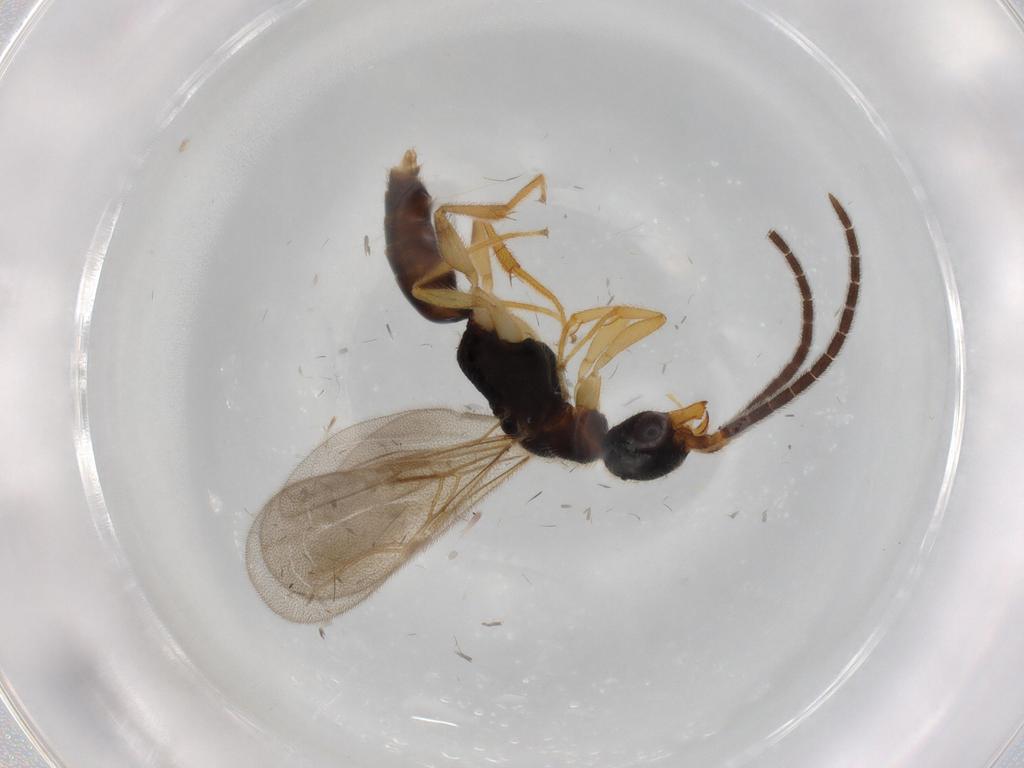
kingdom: Animalia
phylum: Arthropoda
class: Insecta
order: Hymenoptera
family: Bethylidae
